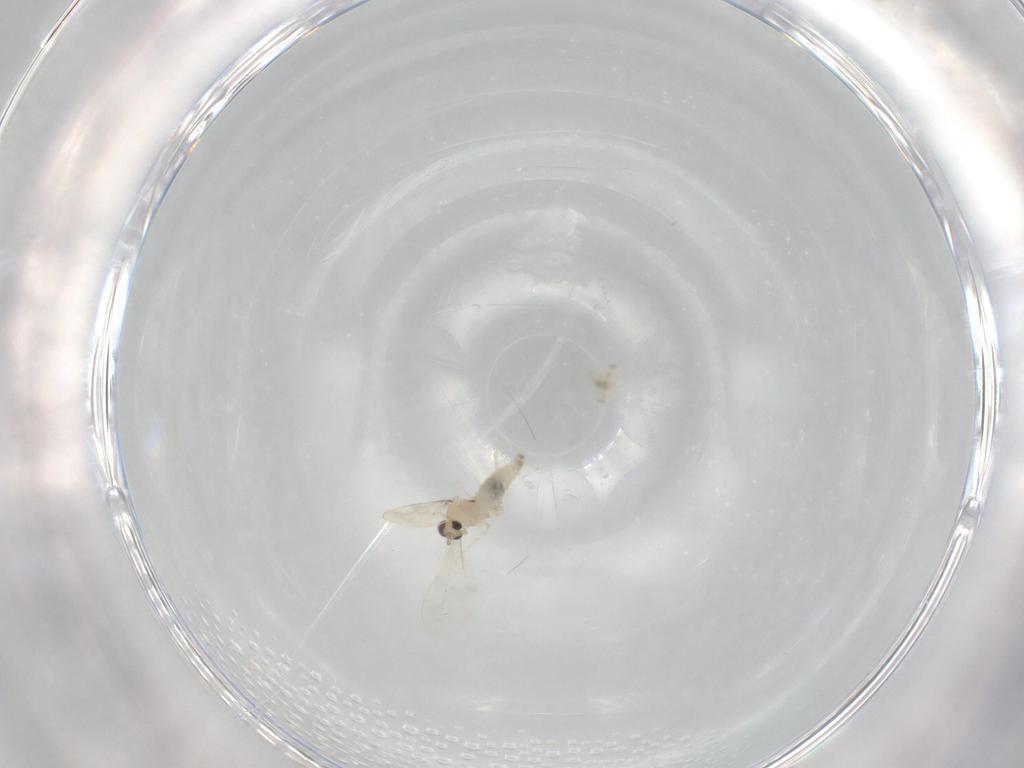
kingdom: Animalia
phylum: Arthropoda
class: Insecta
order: Diptera
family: Cecidomyiidae
